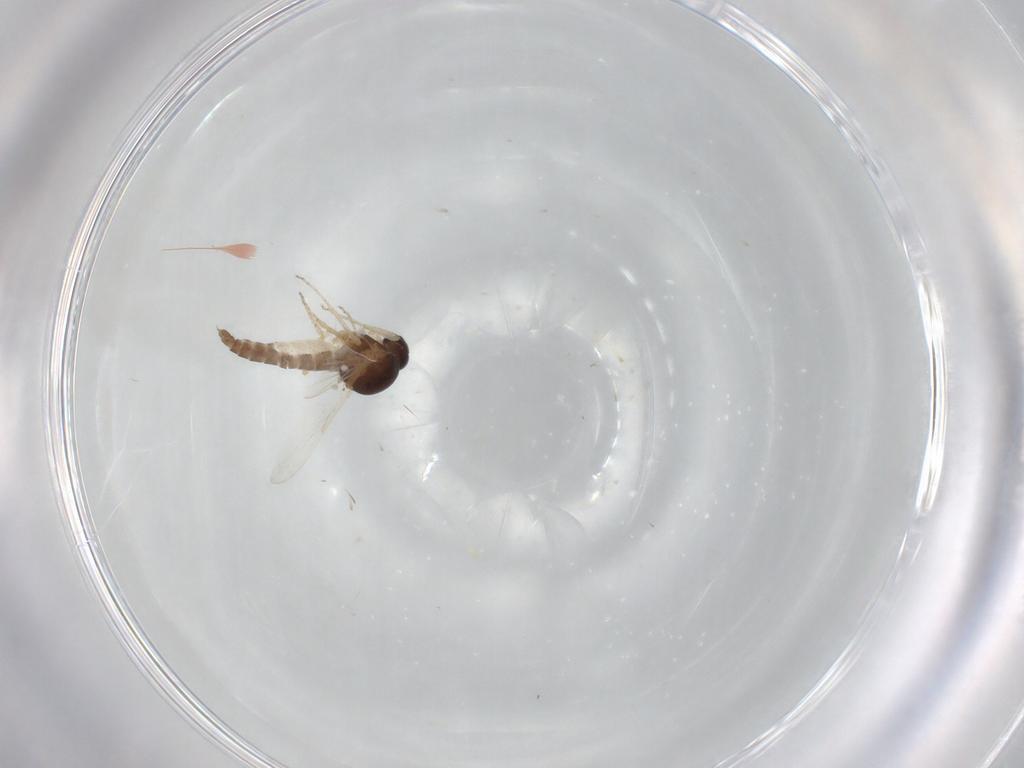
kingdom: Animalia
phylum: Arthropoda
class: Insecta
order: Diptera
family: Ceratopogonidae
